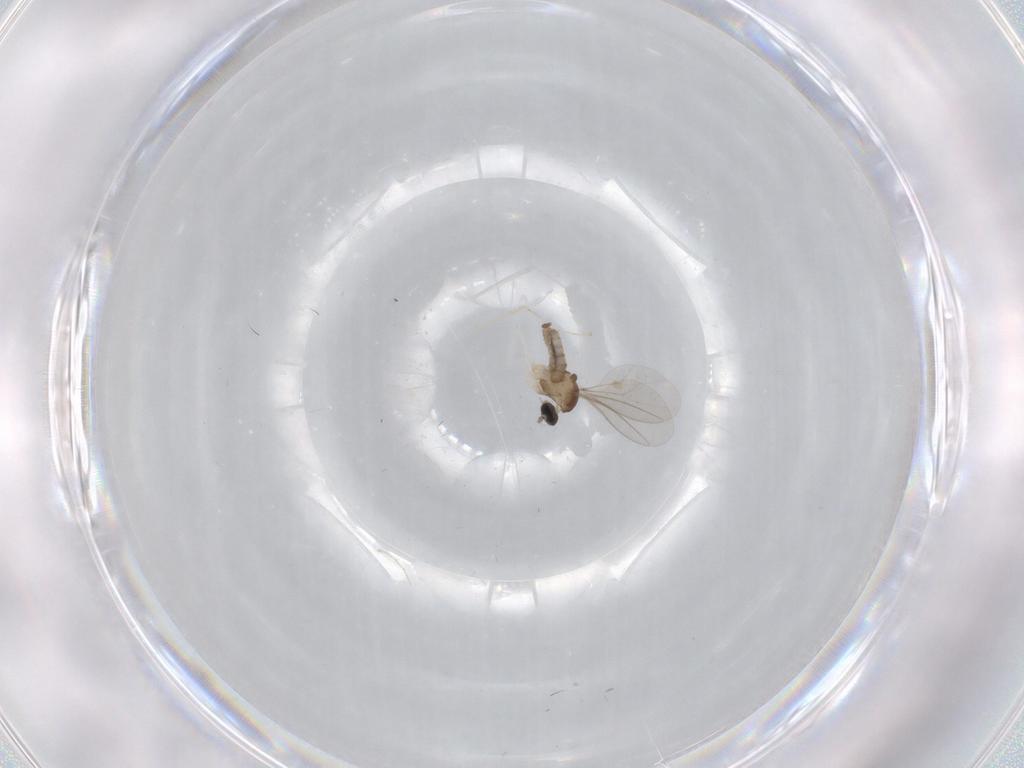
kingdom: Animalia
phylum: Arthropoda
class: Insecta
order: Diptera
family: Cecidomyiidae
